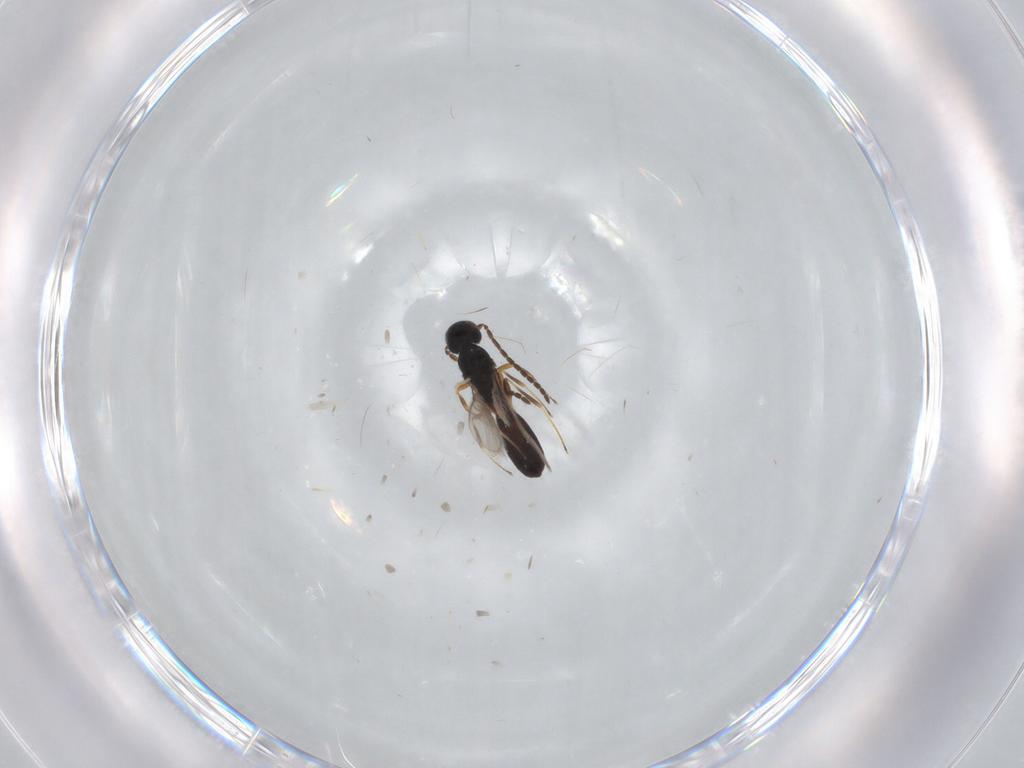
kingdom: Animalia
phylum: Arthropoda
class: Insecta
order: Hymenoptera
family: Scelionidae
